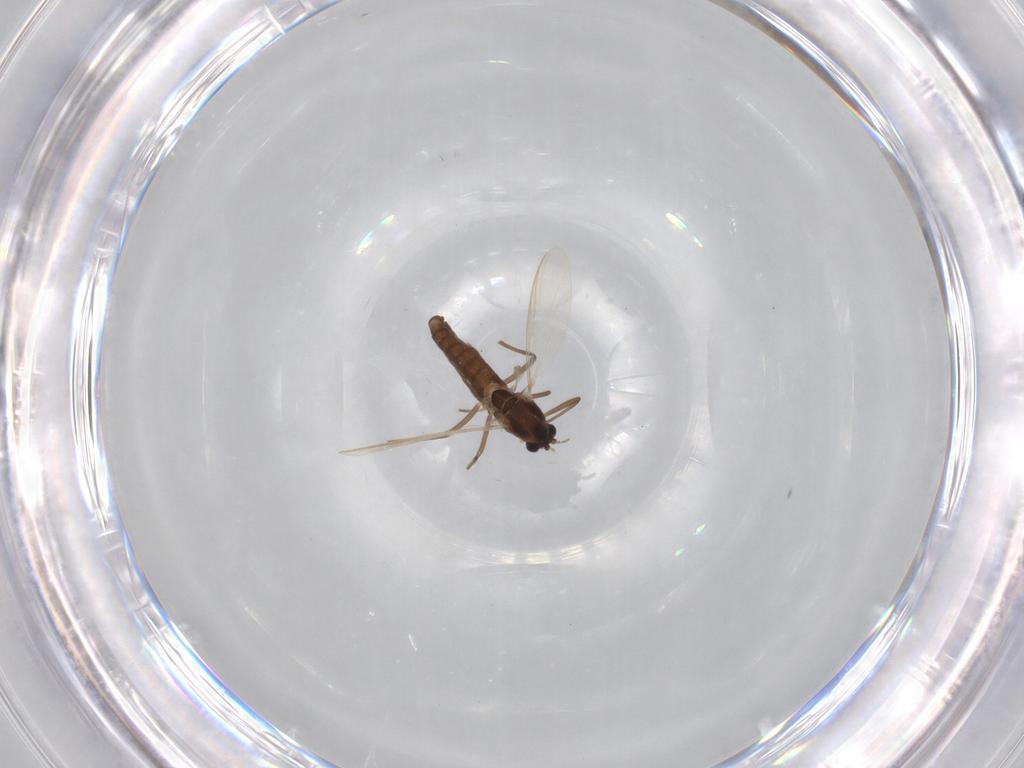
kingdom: Animalia
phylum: Arthropoda
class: Insecta
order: Diptera
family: Chironomidae
